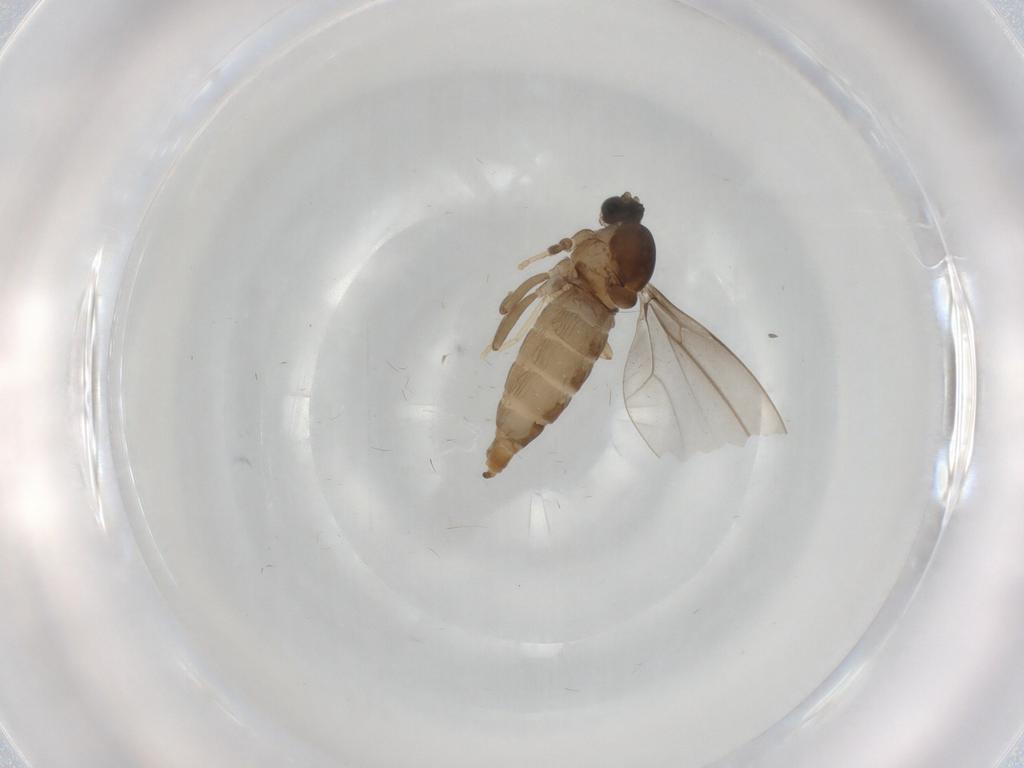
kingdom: Animalia
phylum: Arthropoda
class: Insecta
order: Diptera
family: Cecidomyiidae
